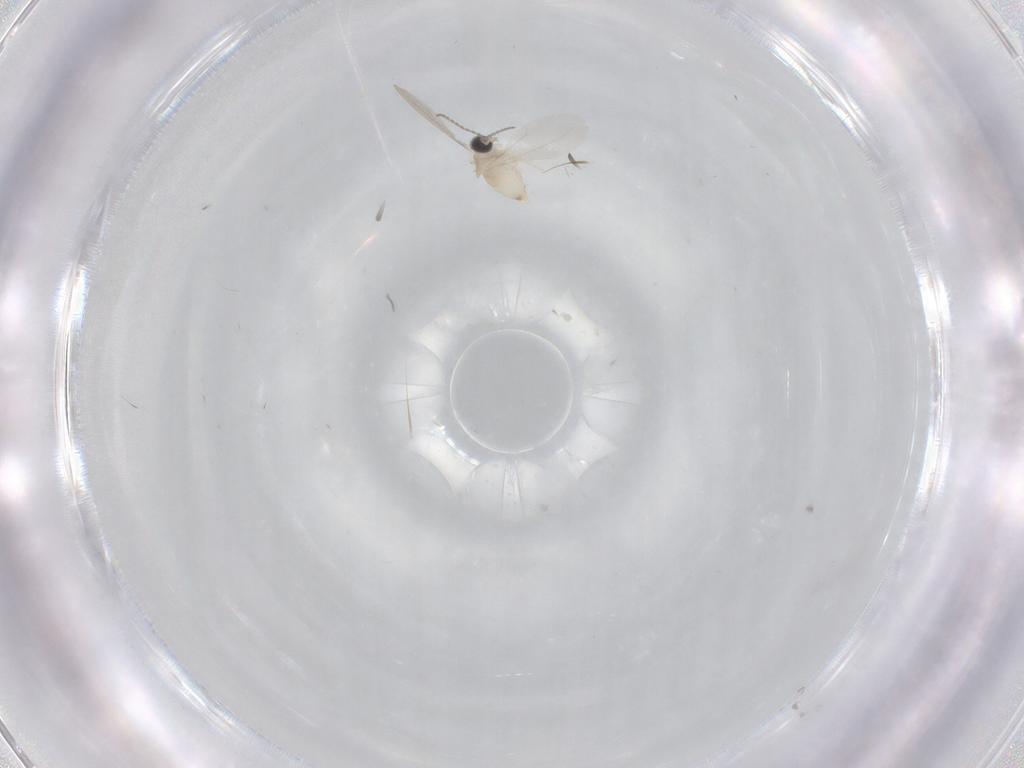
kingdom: Animalia
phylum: Arthropoda
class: Insecta
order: Diptera
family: Cecidomyiidae
